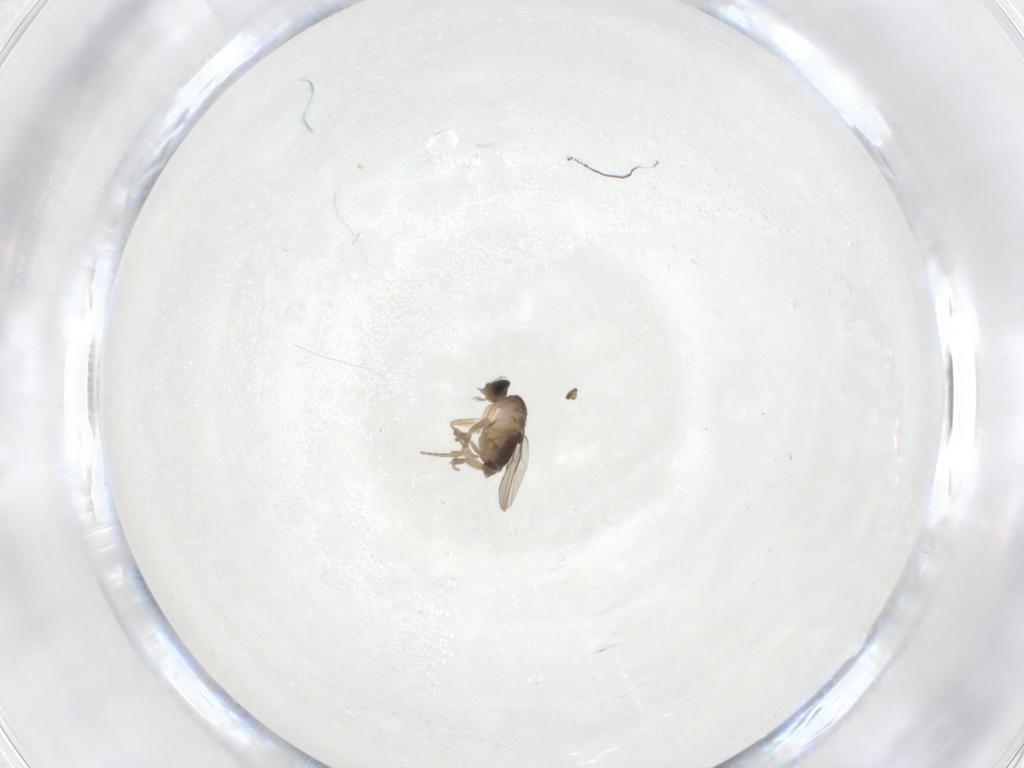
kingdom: Animalia
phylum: Arthropoda
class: Insecta
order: Diptera
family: Cecidomyiidae
